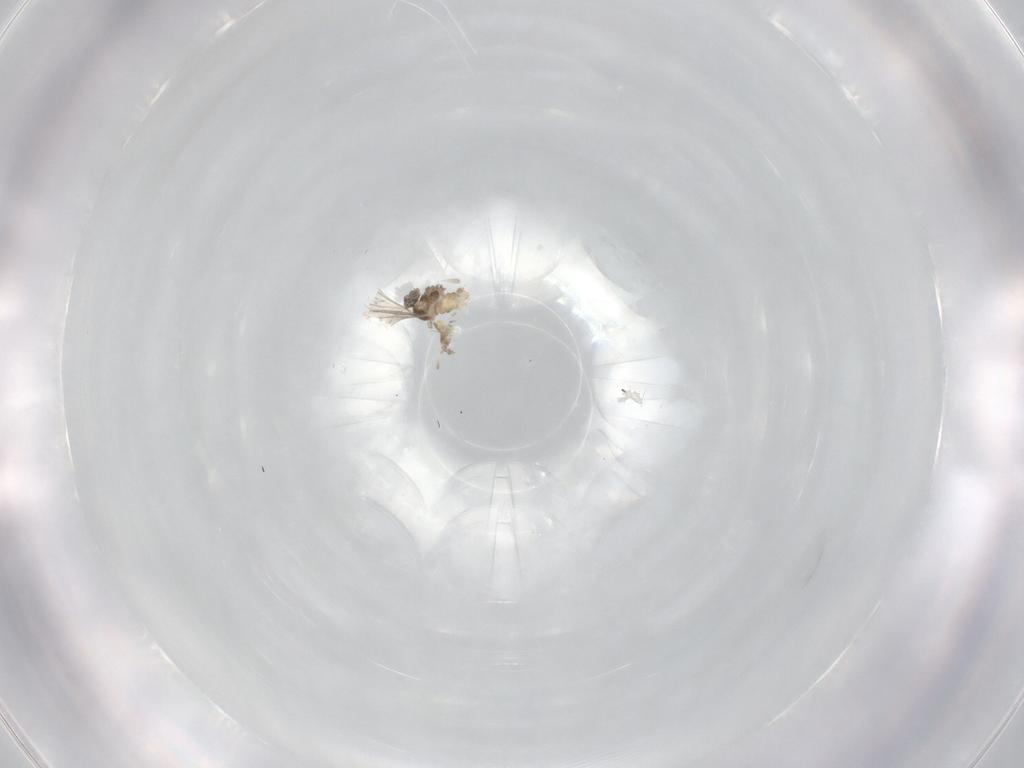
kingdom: Animalia
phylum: Arthropoda
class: Insecta
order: Diptera
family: Cecidomyiidae
